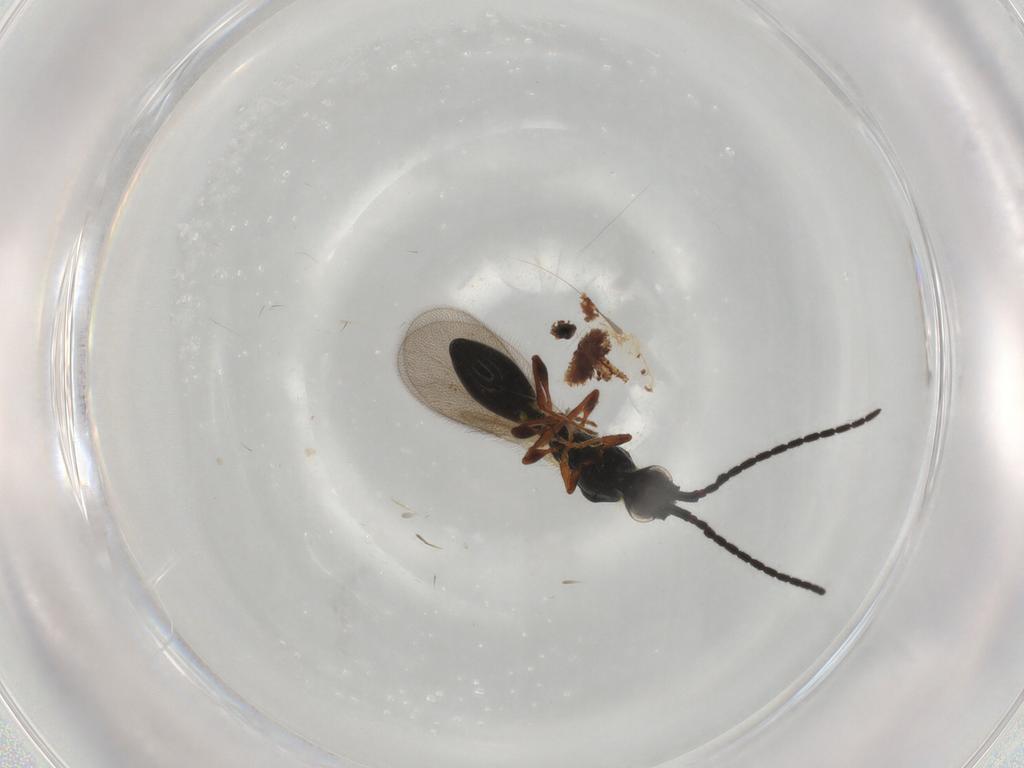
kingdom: Animalia
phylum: Arthropoda
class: Insecta
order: Hymenoptera
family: Diapriidae
